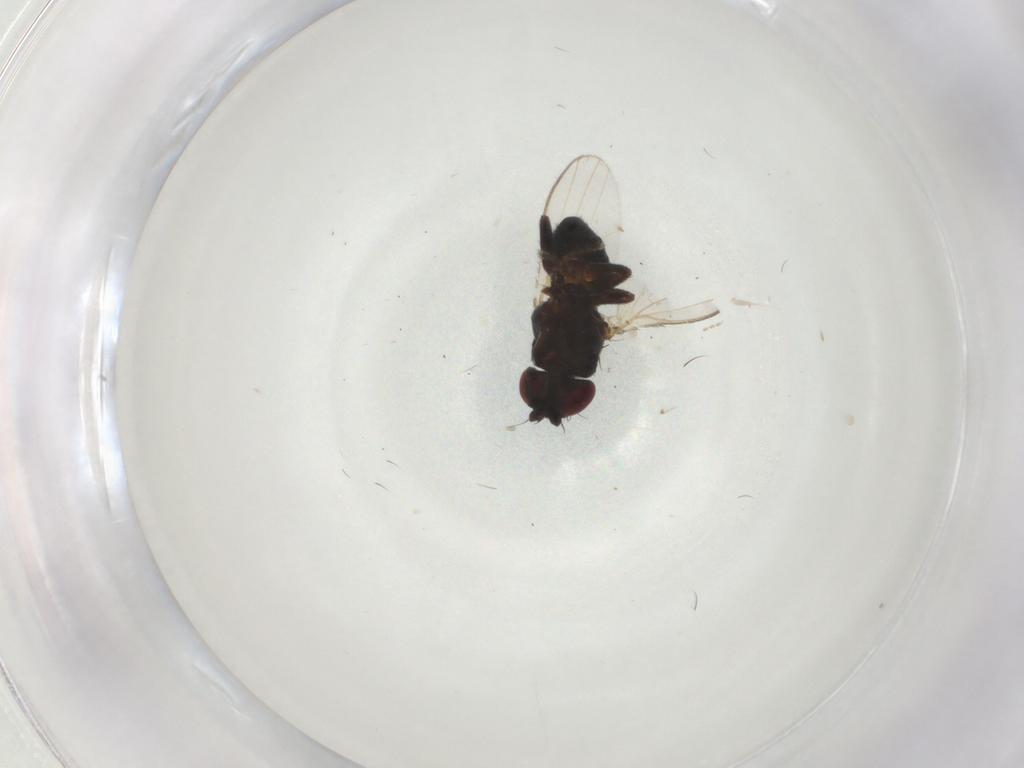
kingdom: Animalia
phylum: Arthropoda
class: Insecta
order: Diptera
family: Milichiidae
